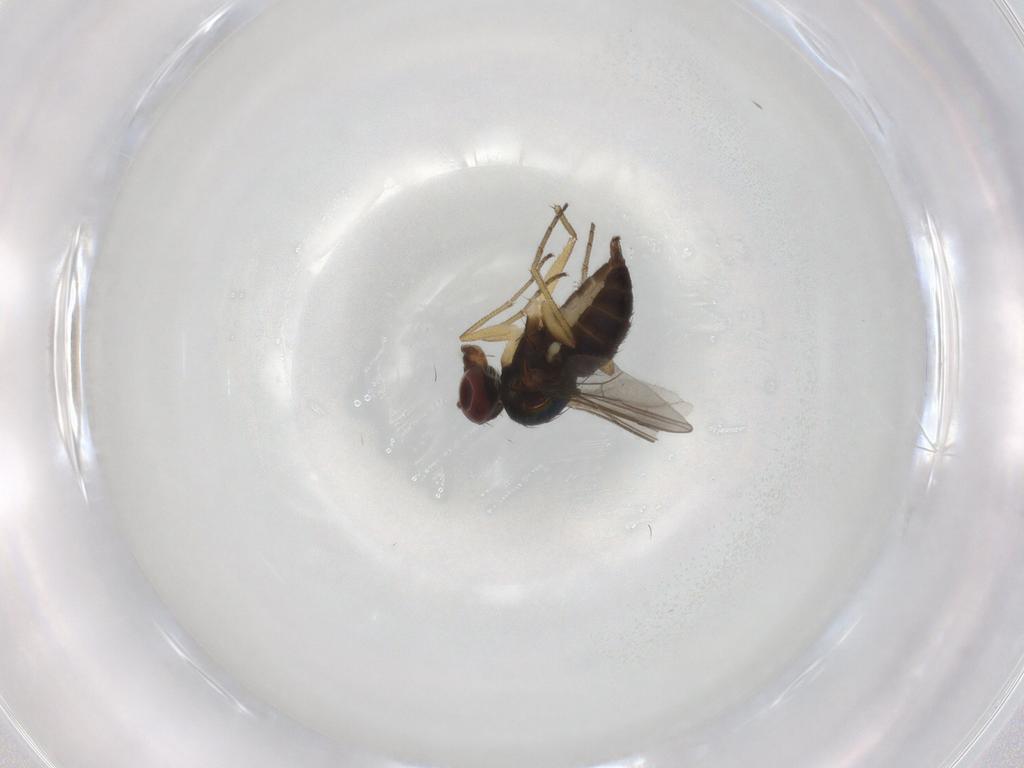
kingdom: Animalia
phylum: Arthropoda
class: Insecta
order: Diptera
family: Dolichopodidae
